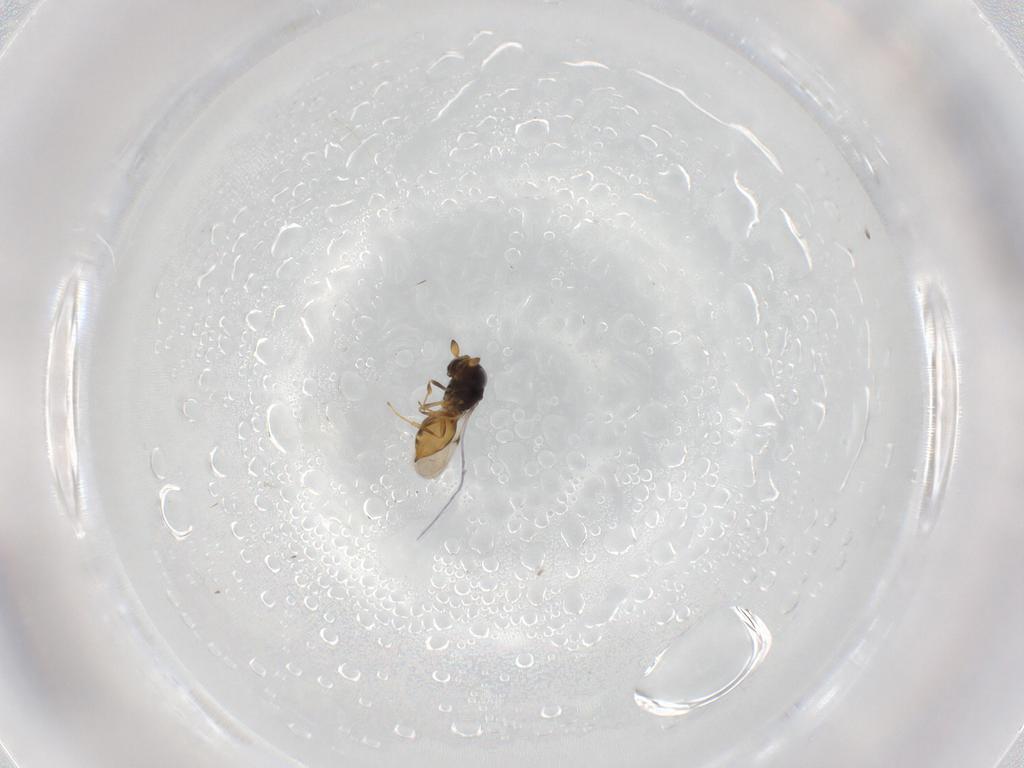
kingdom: Animalia
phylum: Arthropoda
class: Insecta
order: Hymenoptera
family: Scelionidae
